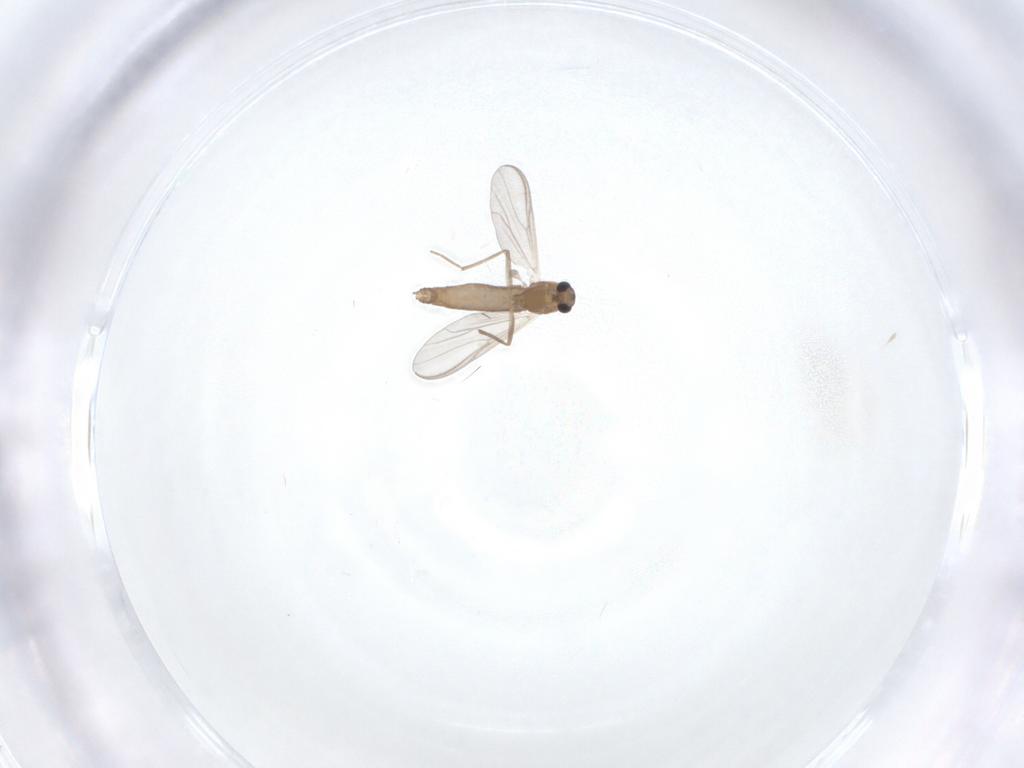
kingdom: Animalia
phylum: Arthropoda
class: Insecta
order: Diptera
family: Chironomidae
